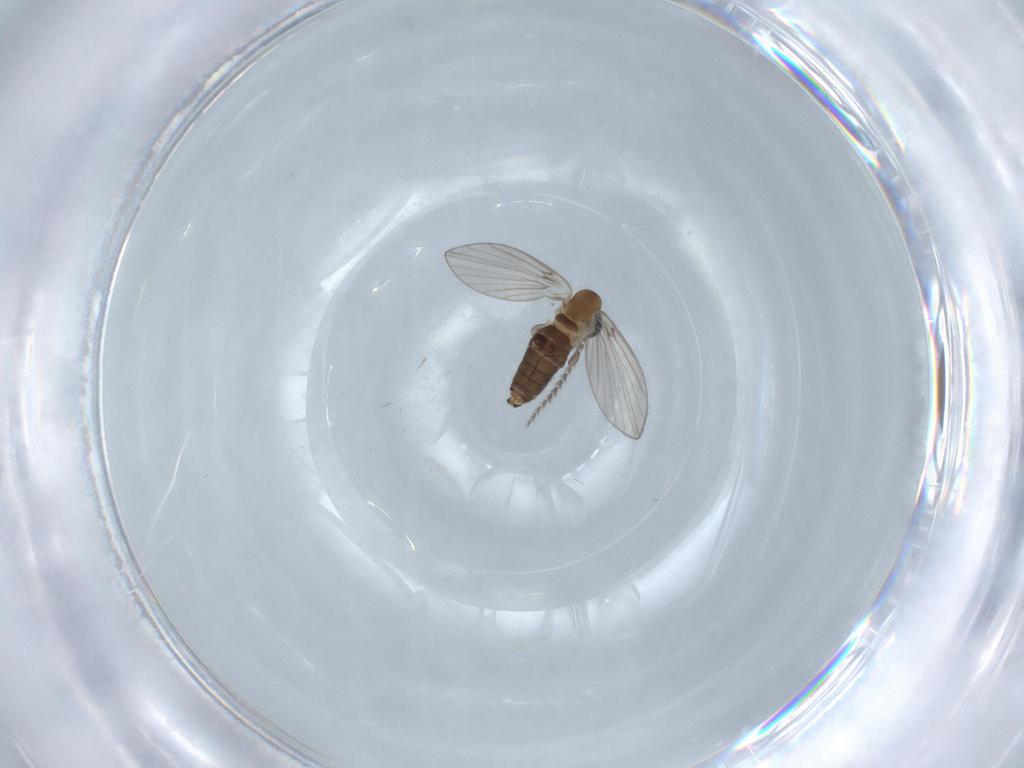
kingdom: Animalia
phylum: Arthropoda
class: Insecta
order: Diptera
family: Psychodidae
